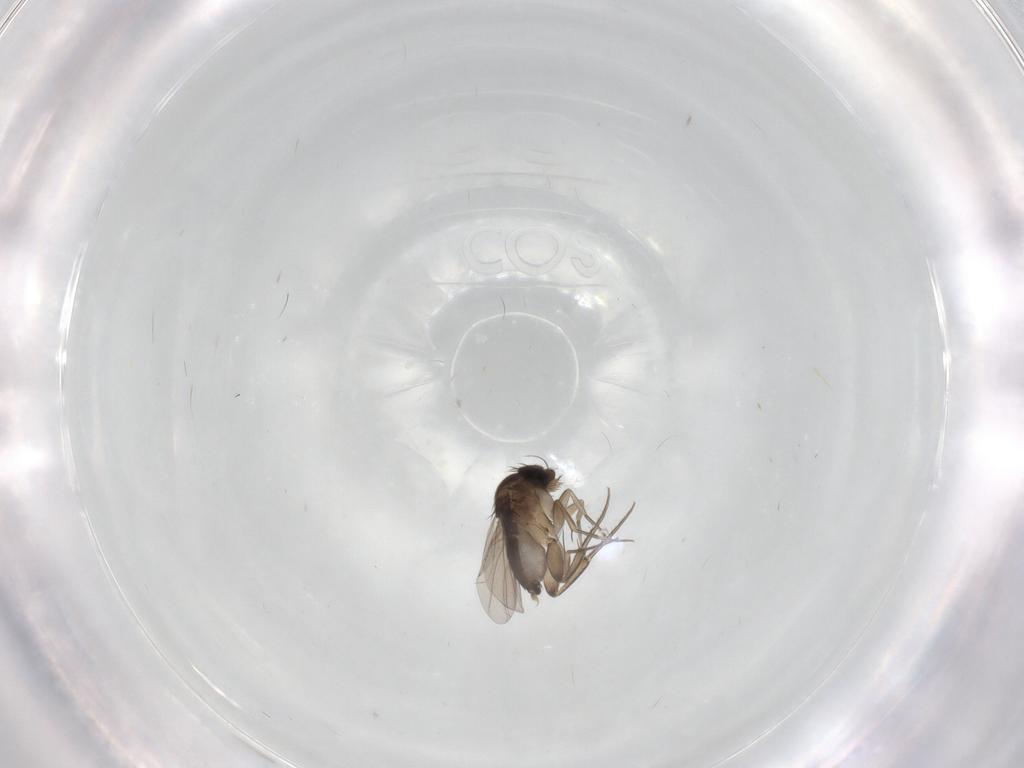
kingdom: Animalia
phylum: Arthropoda
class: Insecta
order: Diptera
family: Phoridae
